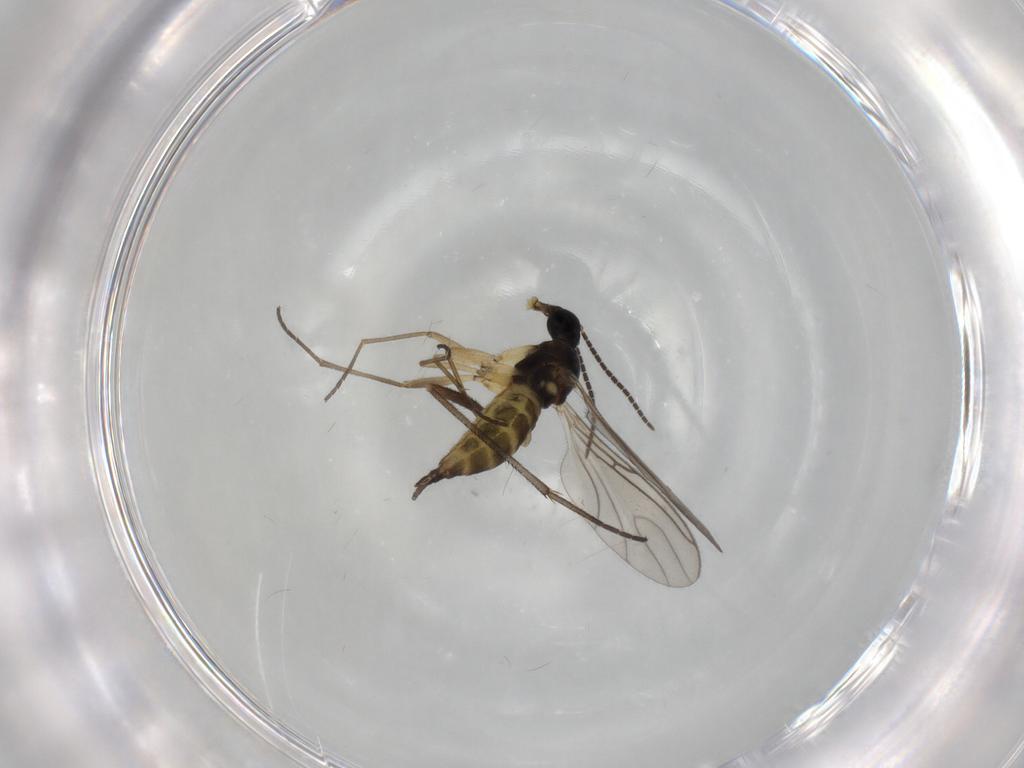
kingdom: Animalia
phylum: Arthropoda
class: Insecta
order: Diptera
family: Sciaridae
